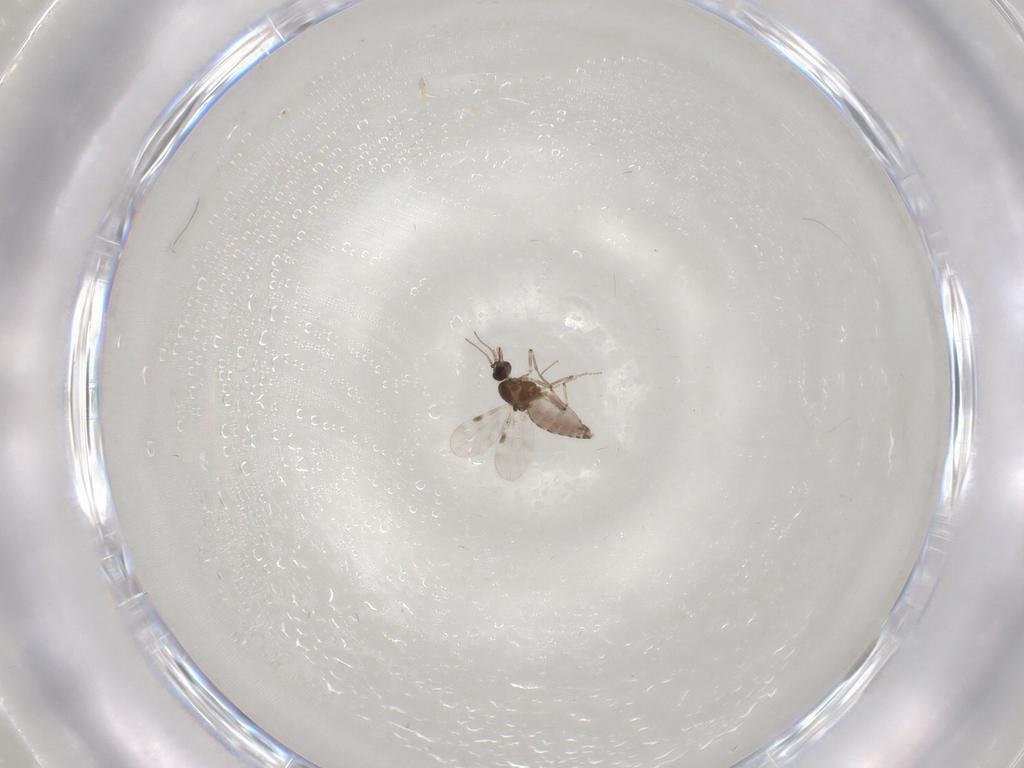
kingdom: Animalia
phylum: Arthropoda
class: Insecta
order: Diptera
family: Cecidomyiidae
